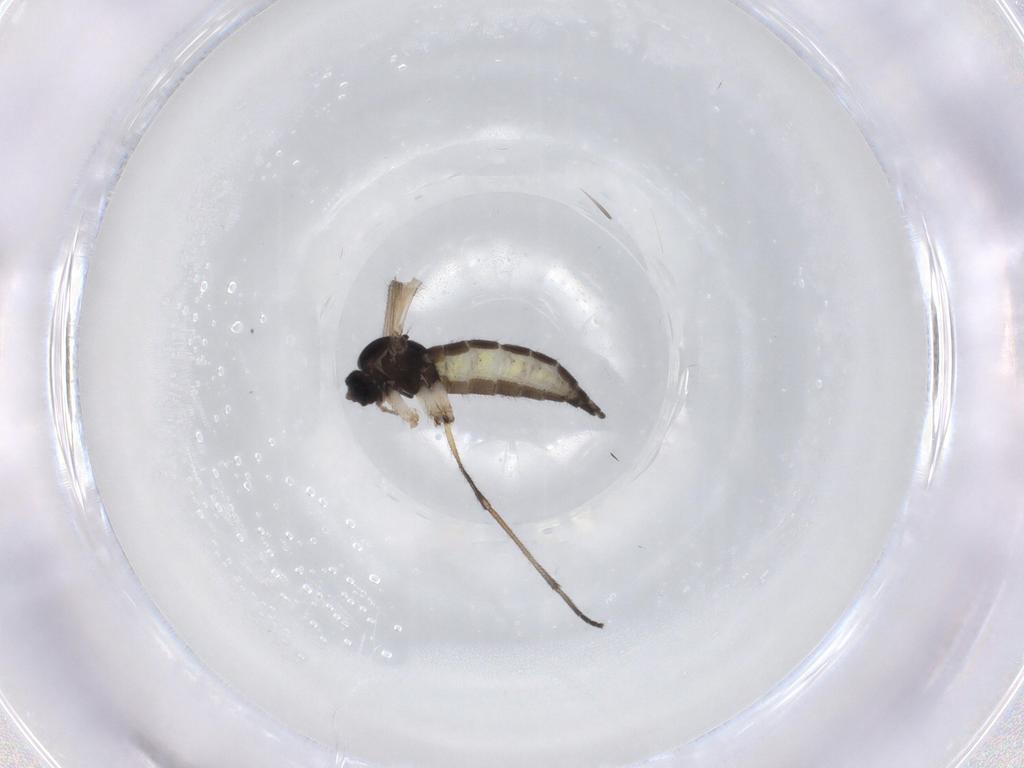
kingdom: Animalia
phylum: Arthropoda
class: Insecta
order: Diptera
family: Sciaridae
